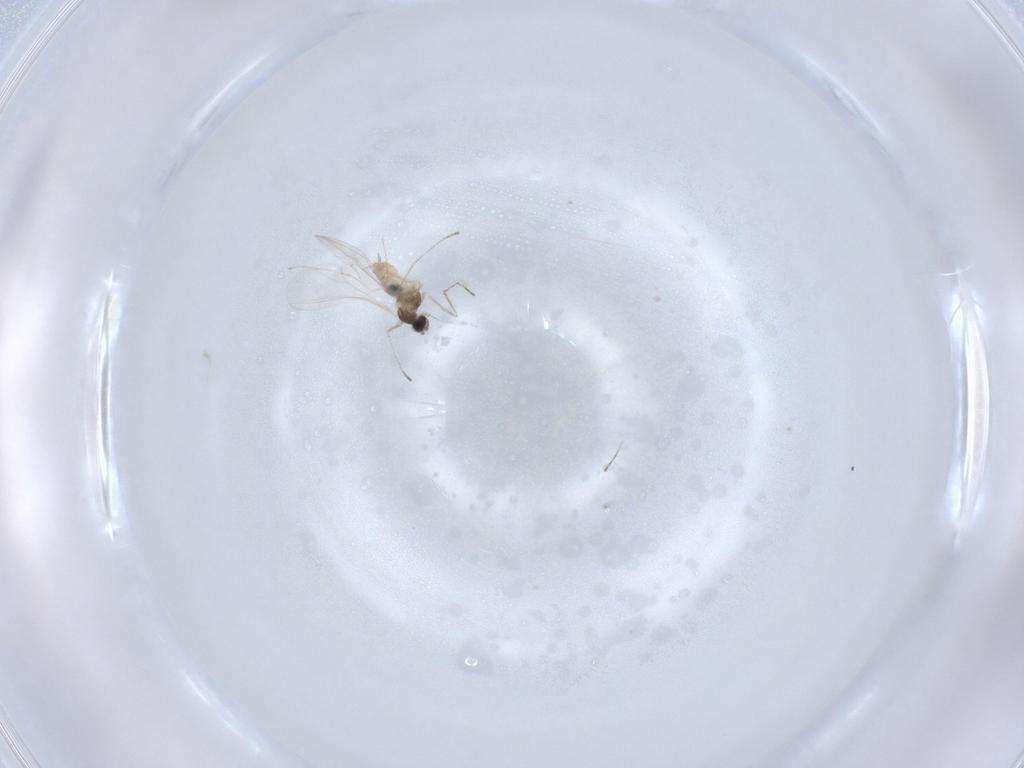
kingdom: Animalia
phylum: Arthropoda
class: Insecta
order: Diptera
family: Cecidomyiidae
